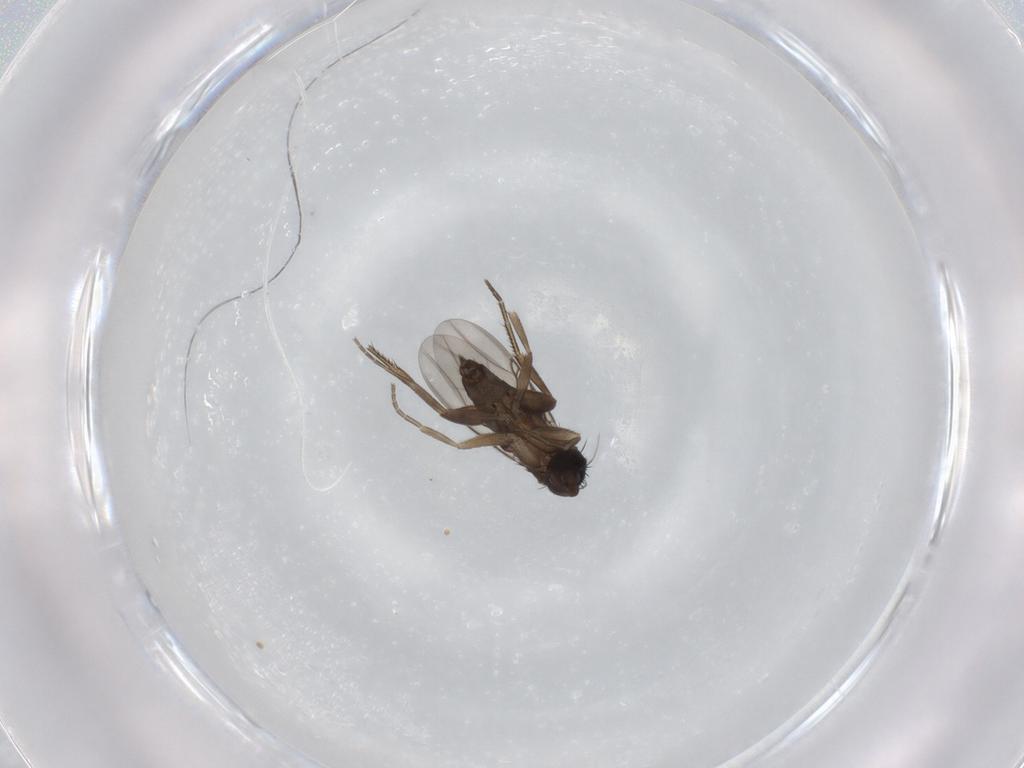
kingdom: Animalia
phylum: Arthropoda
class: Insecta
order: Diptera
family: Phoridae
